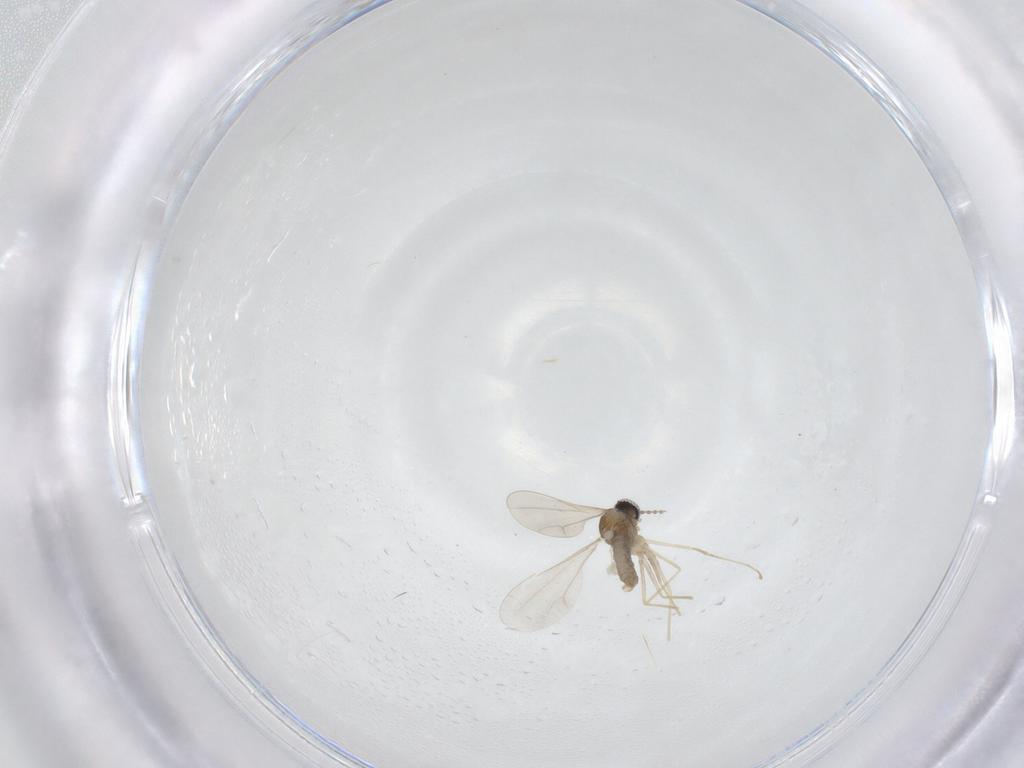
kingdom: Animalia
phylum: Arthropoda
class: Insecta
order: Diptera
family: Cecidomyiidae
